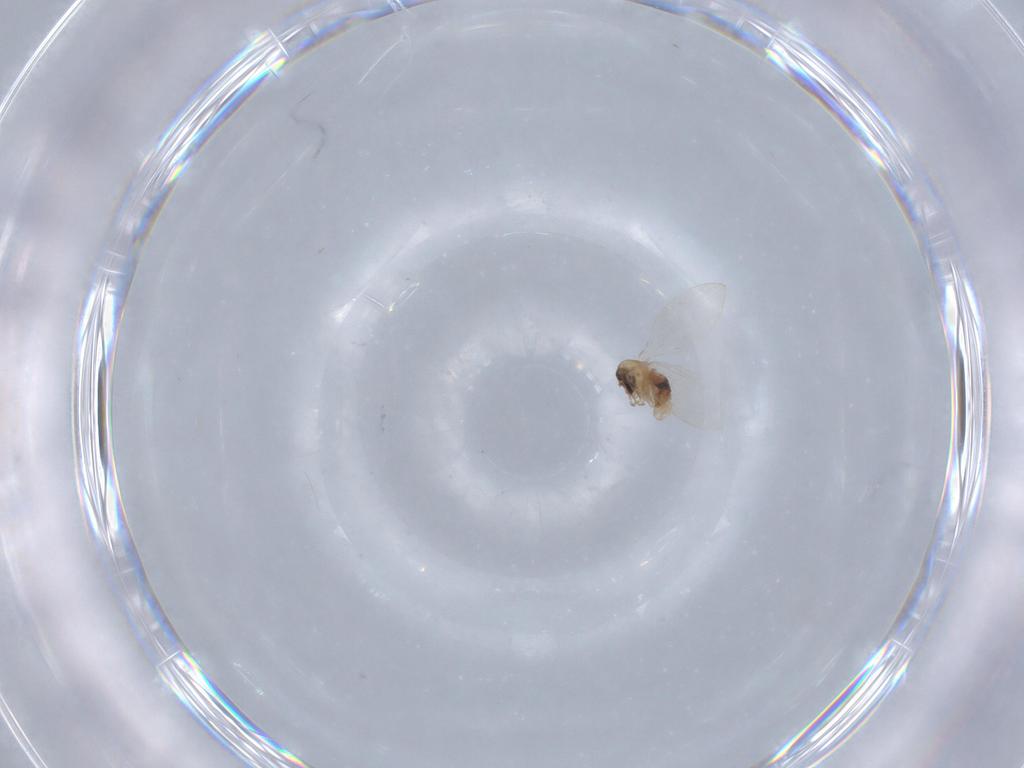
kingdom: Animalia
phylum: Arthropoda
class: Insecta
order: Diptera
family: Psychodidae
